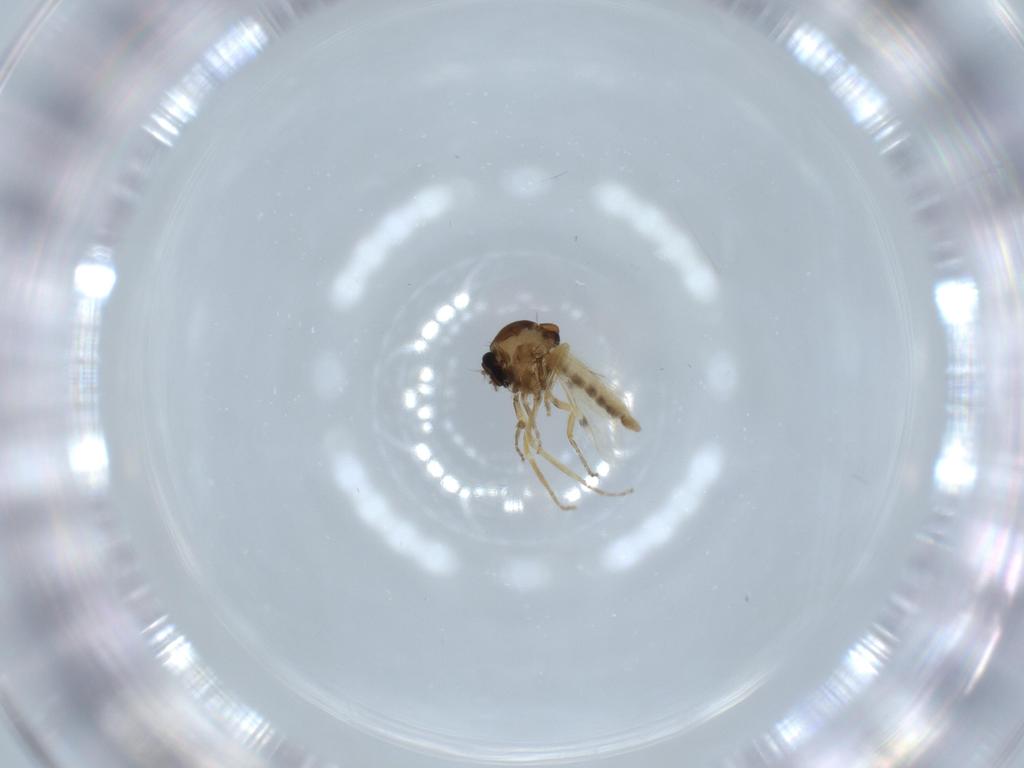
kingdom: Animalia
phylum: Arthropoda
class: Insecta
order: Diptera
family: Ceratopogonidae
